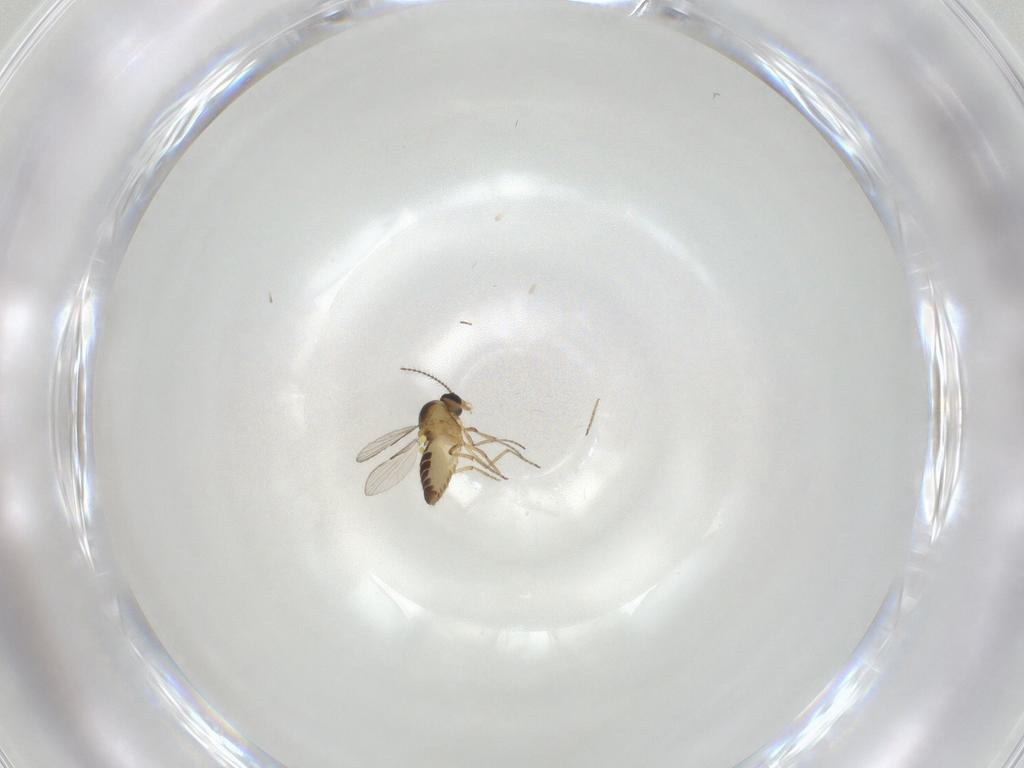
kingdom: Animalia
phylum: Arthropoda
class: Insecta
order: Diptera
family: Ceratopogonidae
